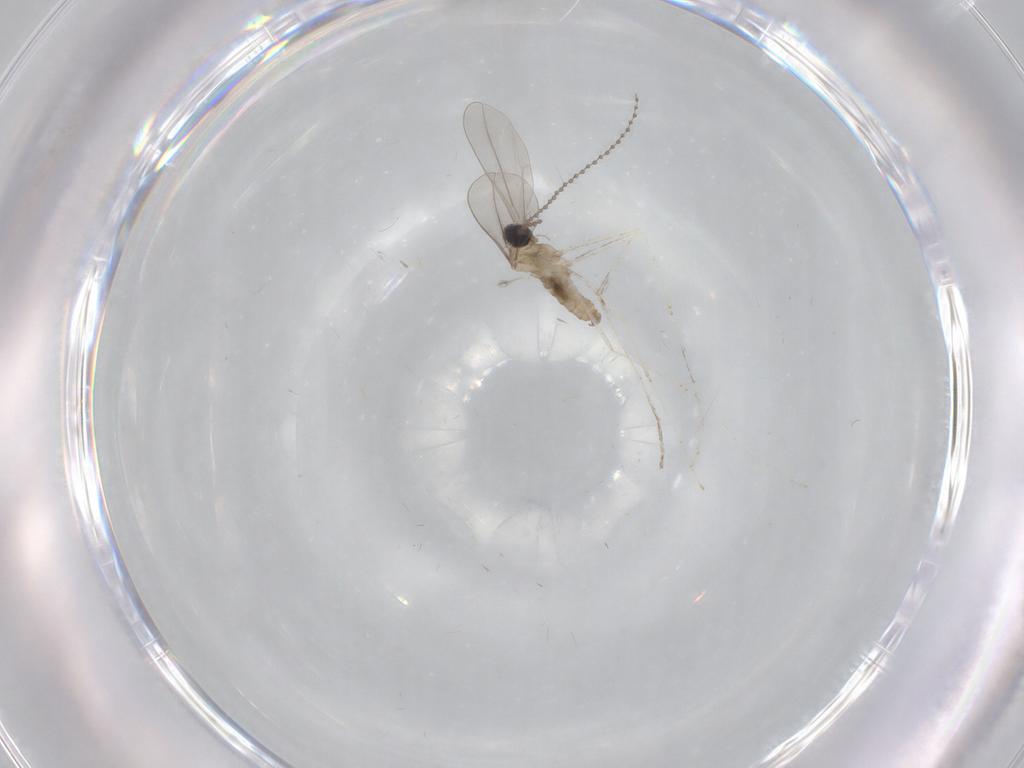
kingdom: Animalia
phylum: Arthropoda
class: Insecta
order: Diptera
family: Cecidomyiidae
